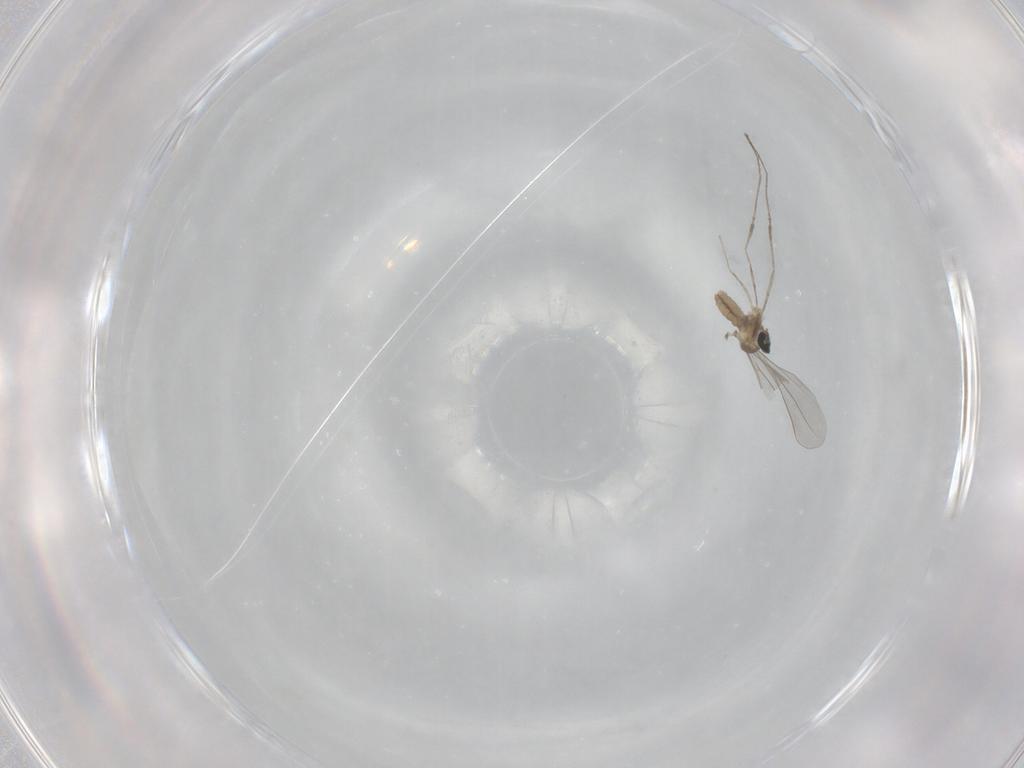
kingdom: Animalia
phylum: Arthropoda
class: Insecta
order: Diptera
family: Cecidomyiidae
